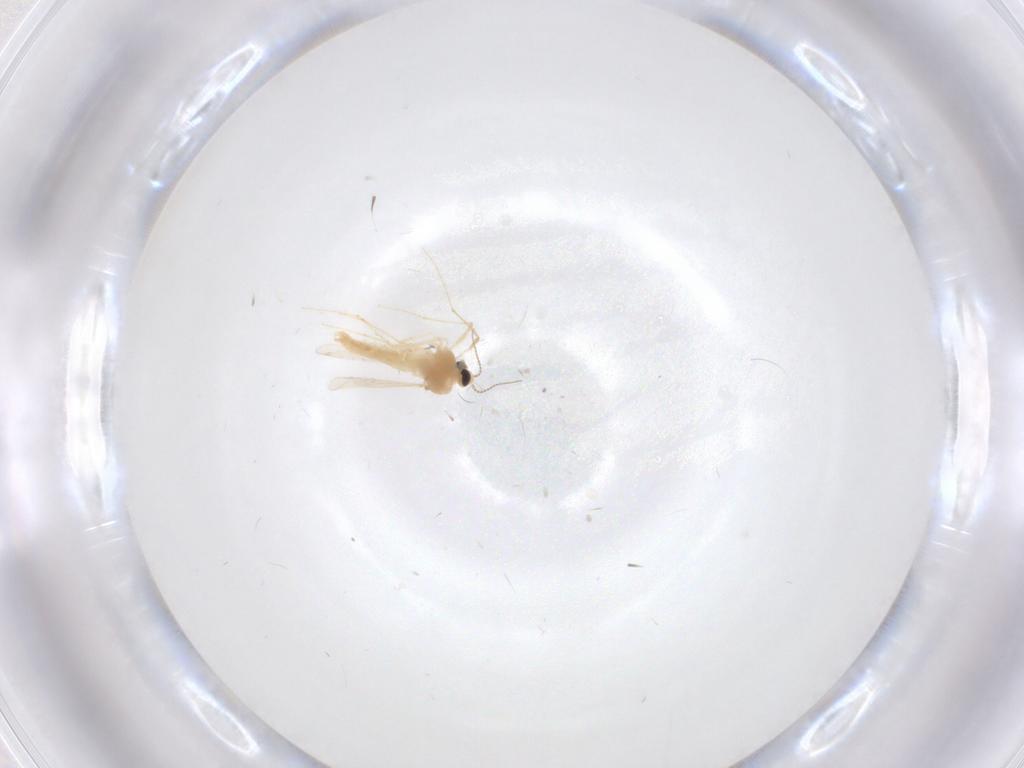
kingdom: Animalia
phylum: Arthropoda
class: Insecta
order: Diptera
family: Chironomidae
